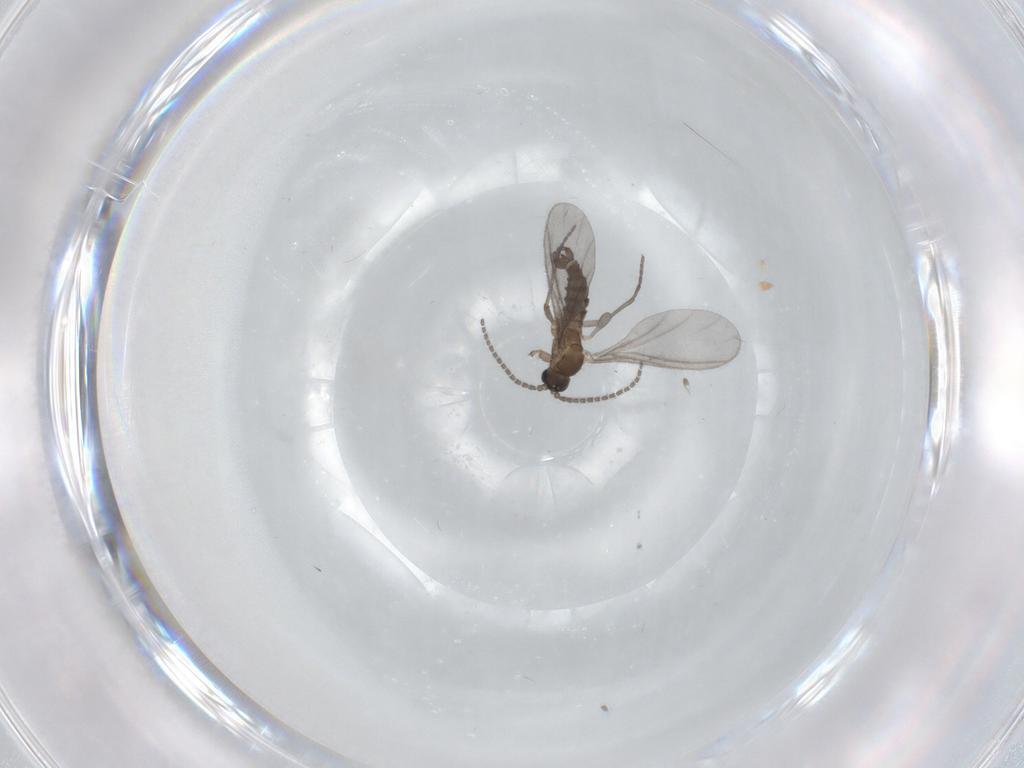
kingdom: Animalia
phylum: Arthropoda
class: Insecta
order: Diptera
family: Sciaridae
